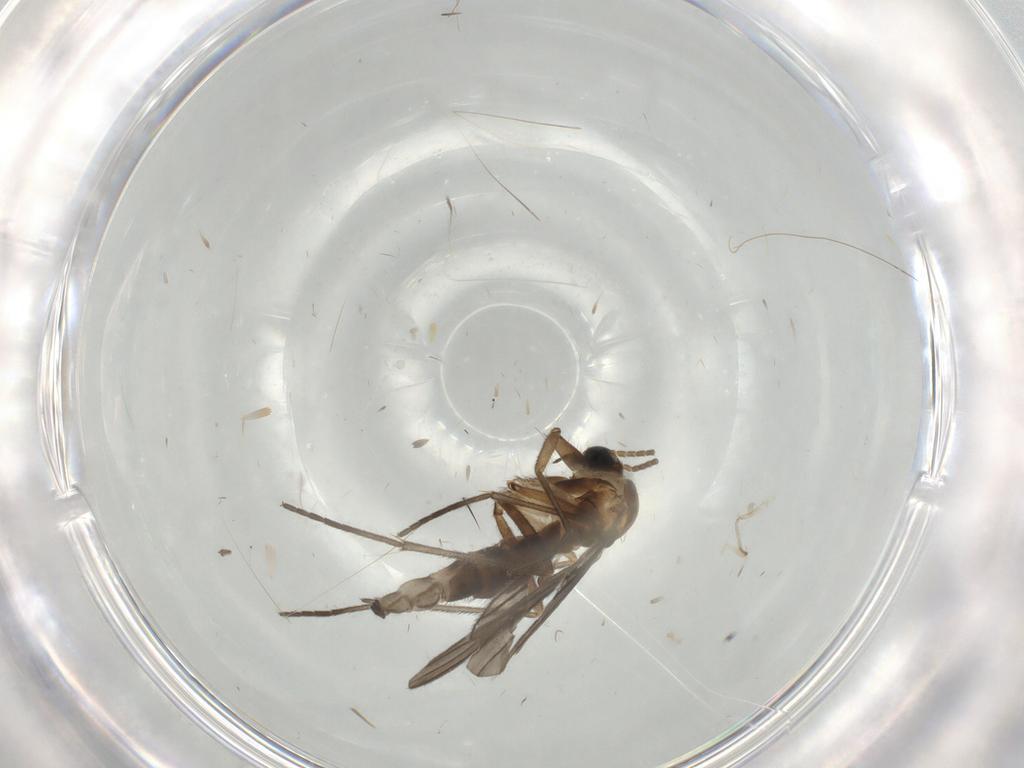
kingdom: Animalia
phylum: Arthropoda
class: Insecta
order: Diptera
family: Sciaridae
